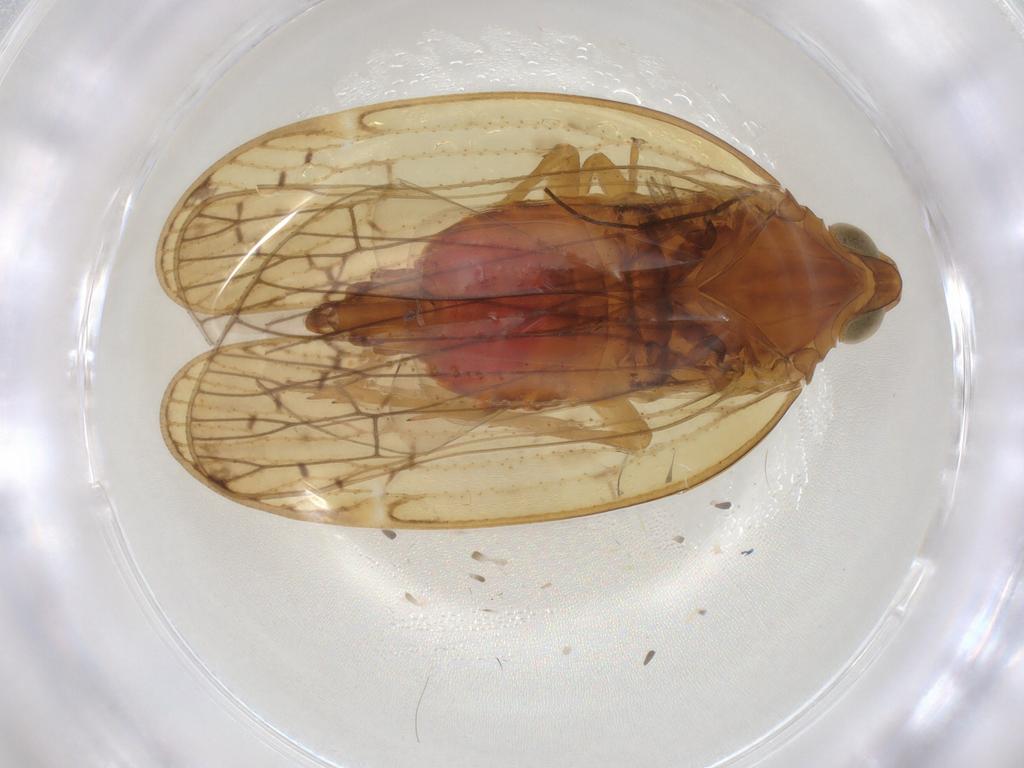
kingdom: Animalia
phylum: Arthropoda
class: Insecta
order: Hemiptera
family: Cixiidae
